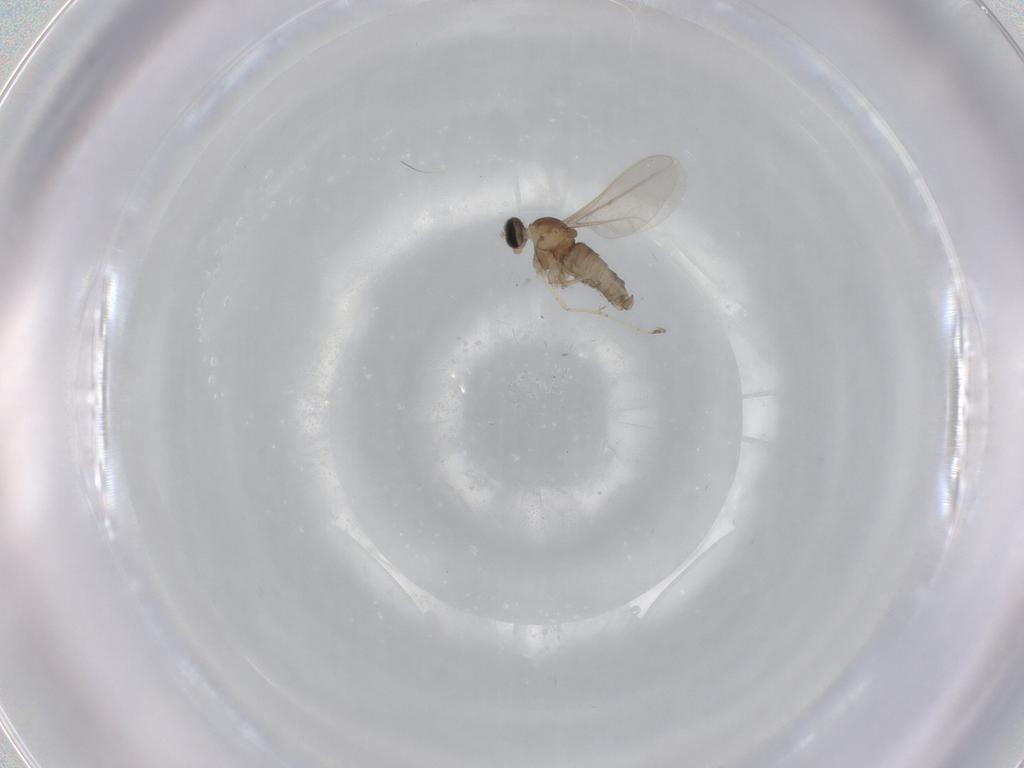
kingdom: Animalia
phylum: Arthropoda
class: Insecta
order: Diptera
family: Cecidomyiidae
